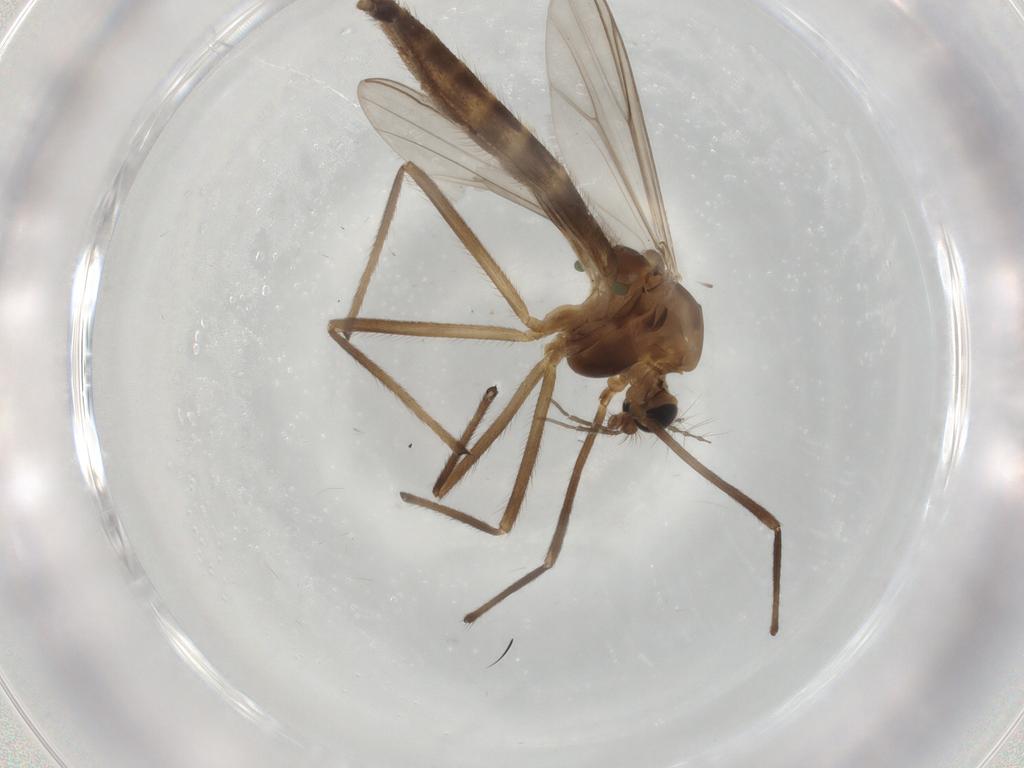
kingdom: Animalia
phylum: Arthropoda
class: Insecta
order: Diptera
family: Chironomidae
